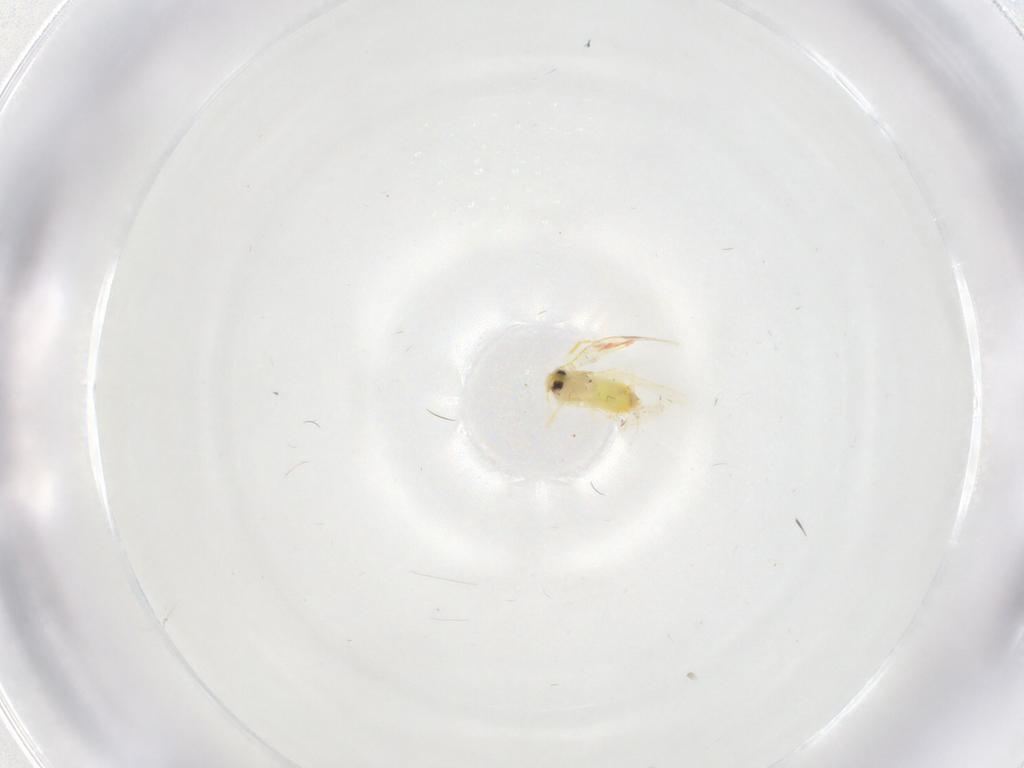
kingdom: Animalia
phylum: Arthropoda
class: Insecta
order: Hemiptera
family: Aleyrodidae
